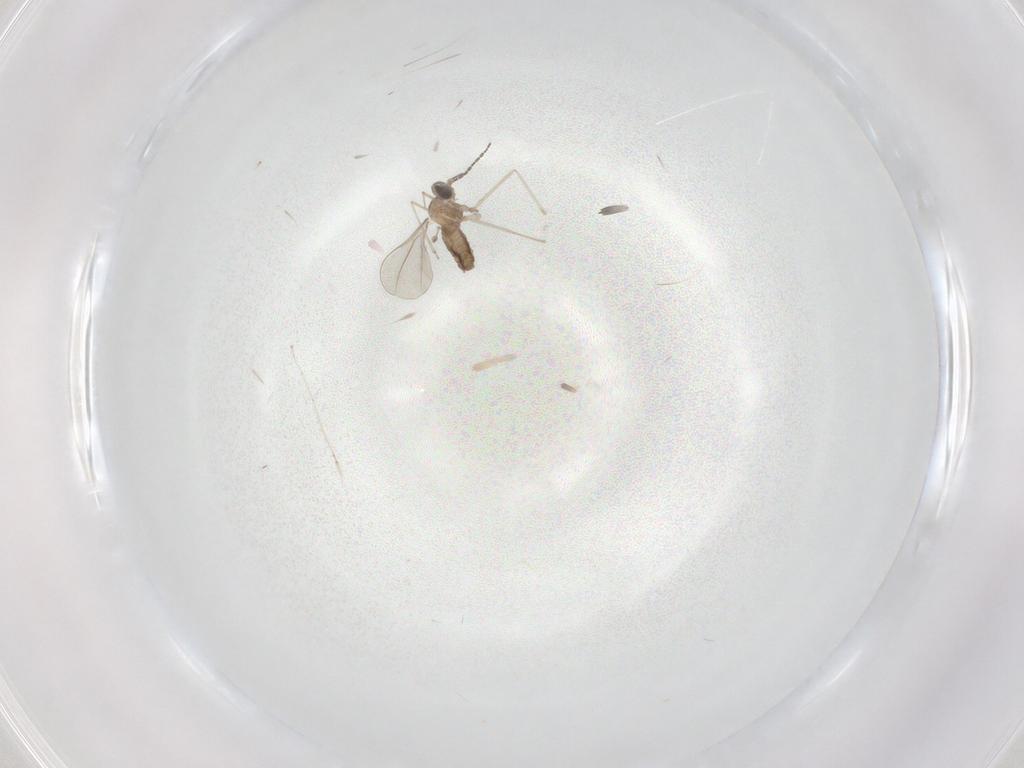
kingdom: Animalia
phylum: Arthropoda
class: Insecta
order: Diptera
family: Cecidomyiidae
